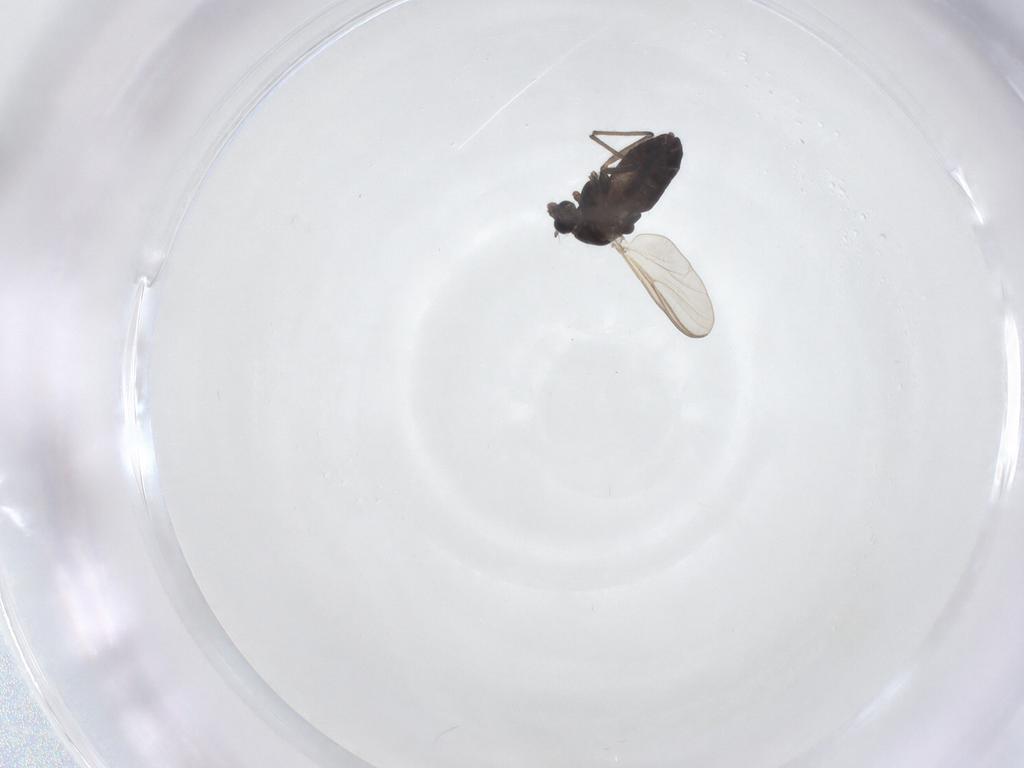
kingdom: Animalia
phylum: Arthropoda
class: Insecta
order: Diptera
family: Chironomidae
